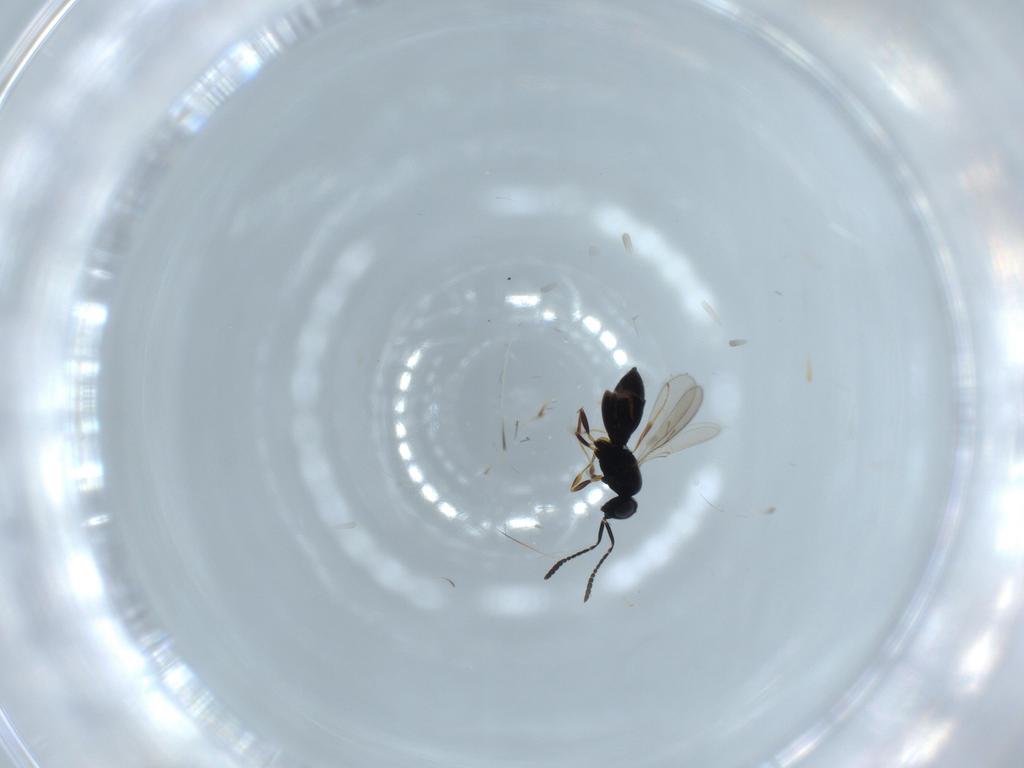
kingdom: Animalia
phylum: Arthropoda
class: Insecta
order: Hymenoptera
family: Scelionidae
